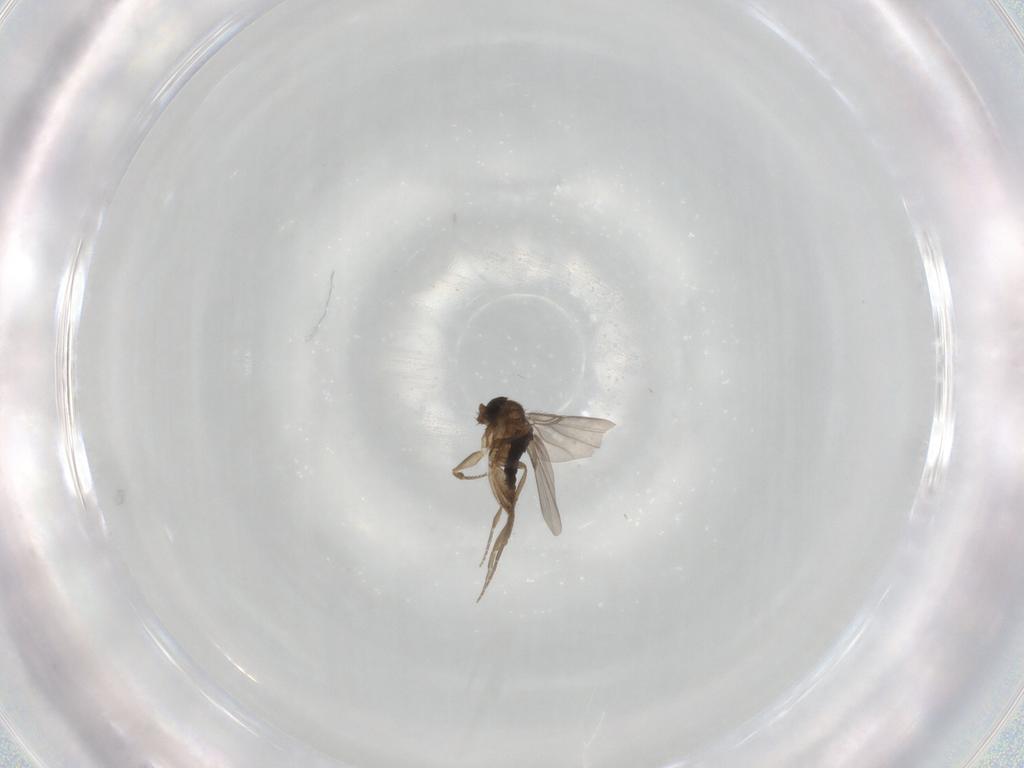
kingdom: Animalia
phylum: Arthropoda
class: Insecta
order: Diptera
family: Phoridae
